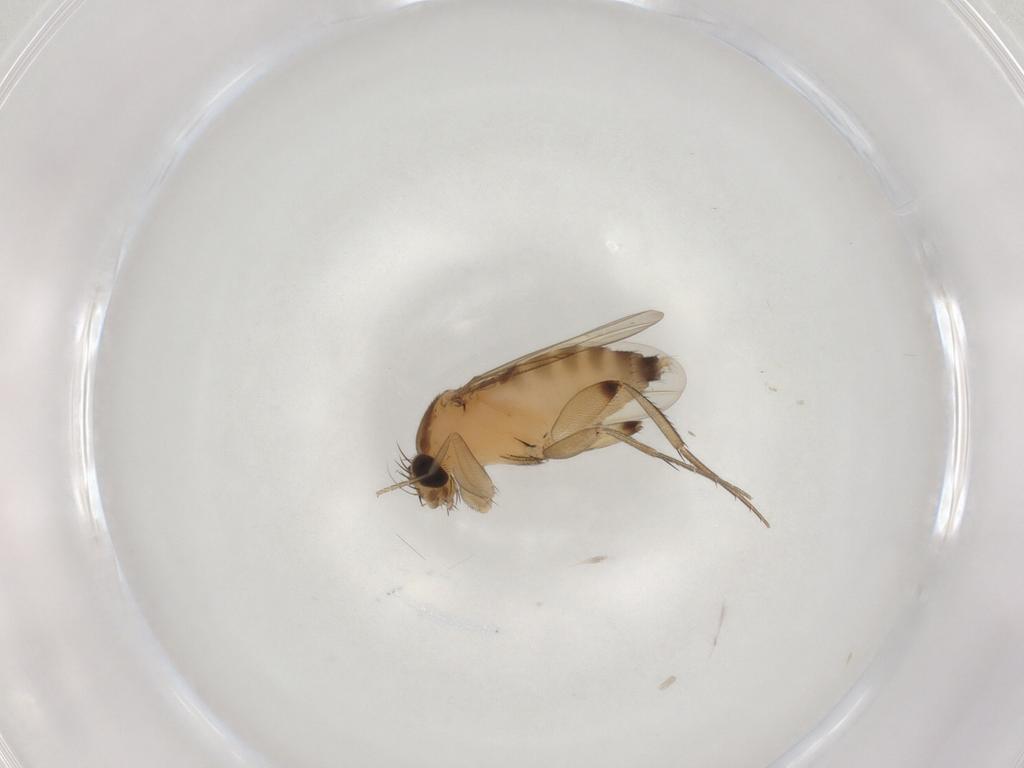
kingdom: Animalia
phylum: Arthropoda
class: Insecta
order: Diptera
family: Phoridae
